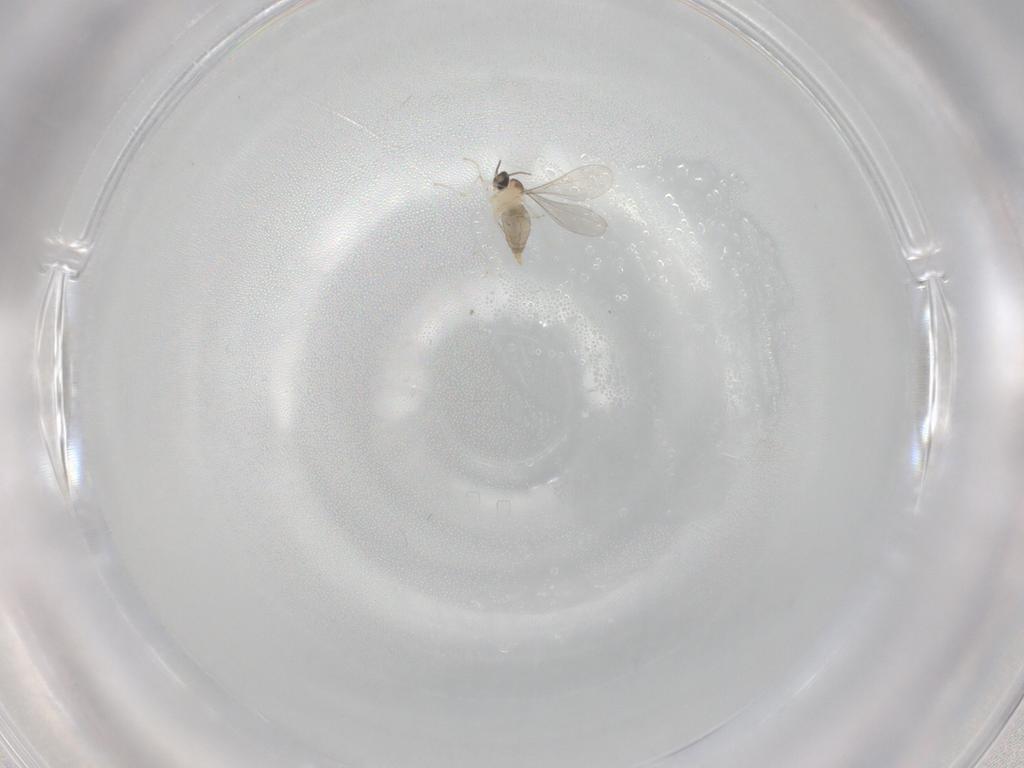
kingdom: Animalia
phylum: Arthropoda
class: Insecta
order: Diptera
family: Cecidomyiidae
